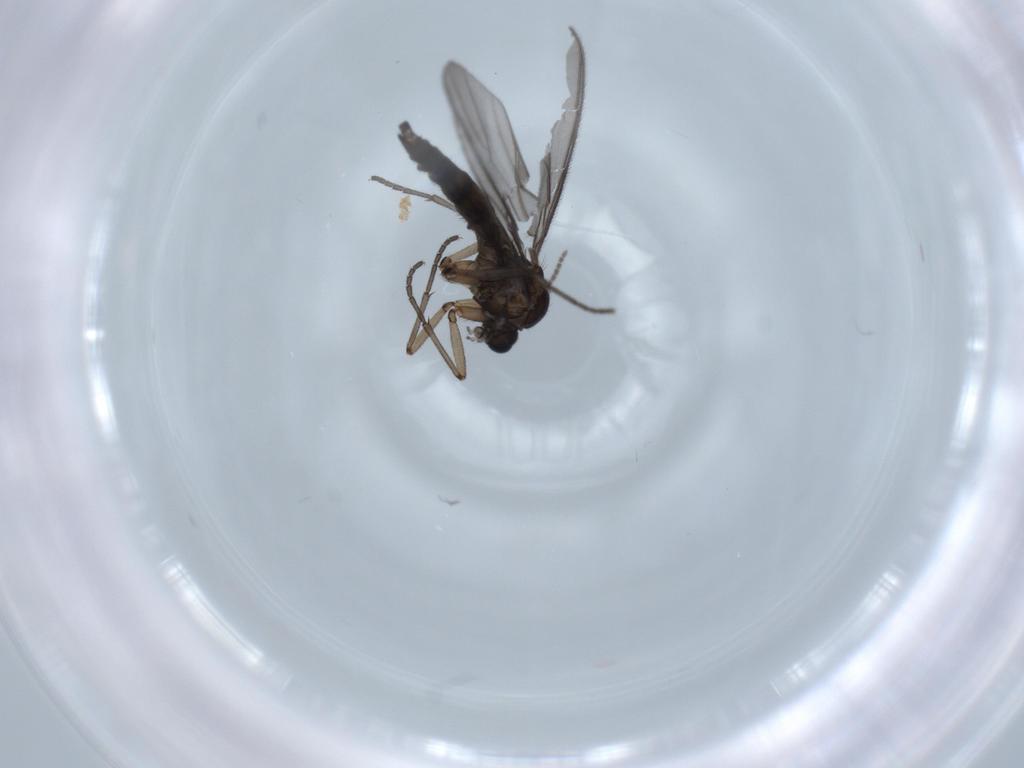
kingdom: Animalia
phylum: Arthropoda
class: Insecta
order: Diptera
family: Sciaridae
